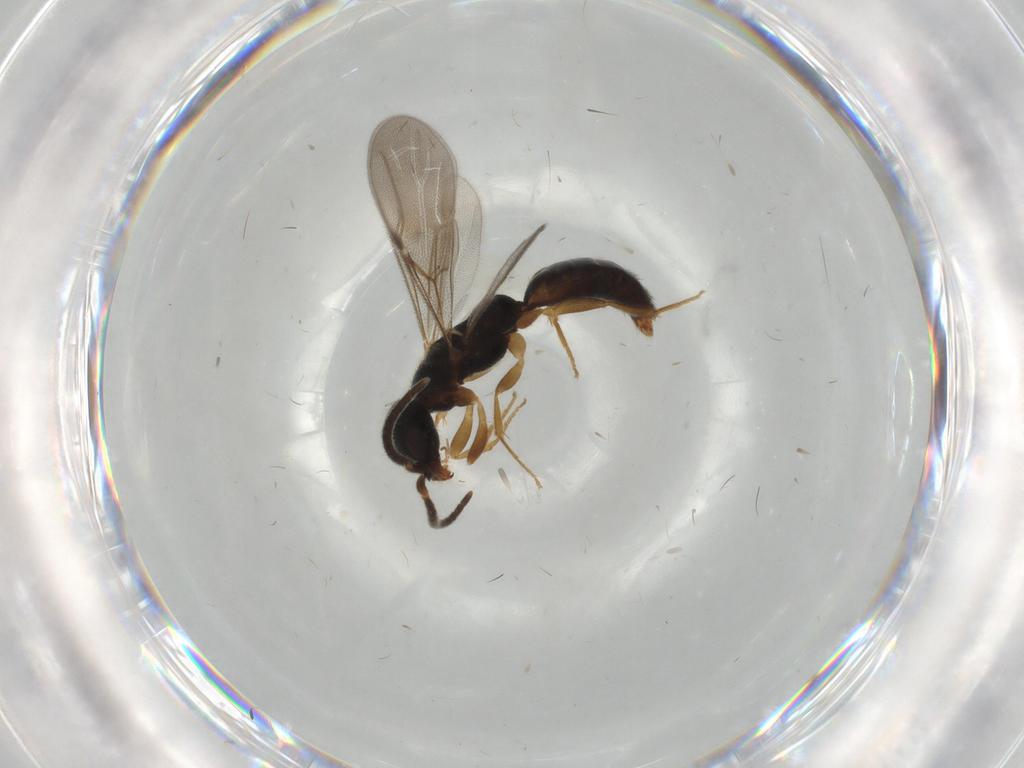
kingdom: Animalia
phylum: Arthropoda
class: Insecta
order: Hymenoptera
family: Bethylidae
